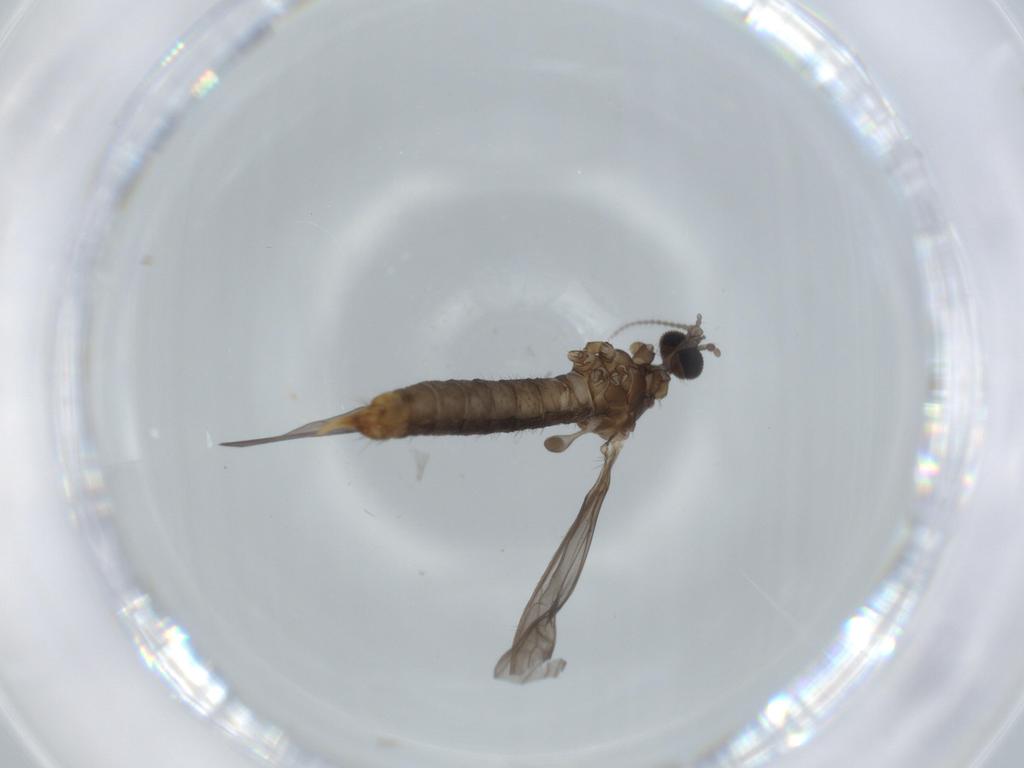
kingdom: Animalia
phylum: Arthropoda
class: Insecta
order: Diptera
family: Limoniidae
